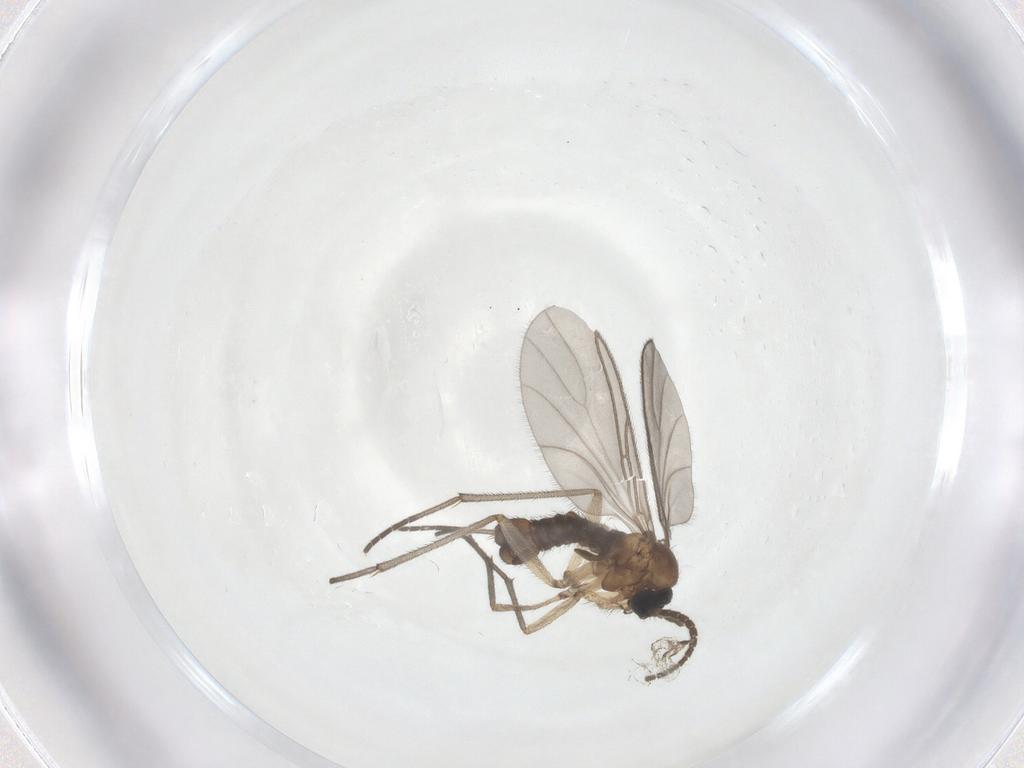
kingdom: Animalia
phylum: Arthropoda
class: Insecta
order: Diptera
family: Sciaridae
